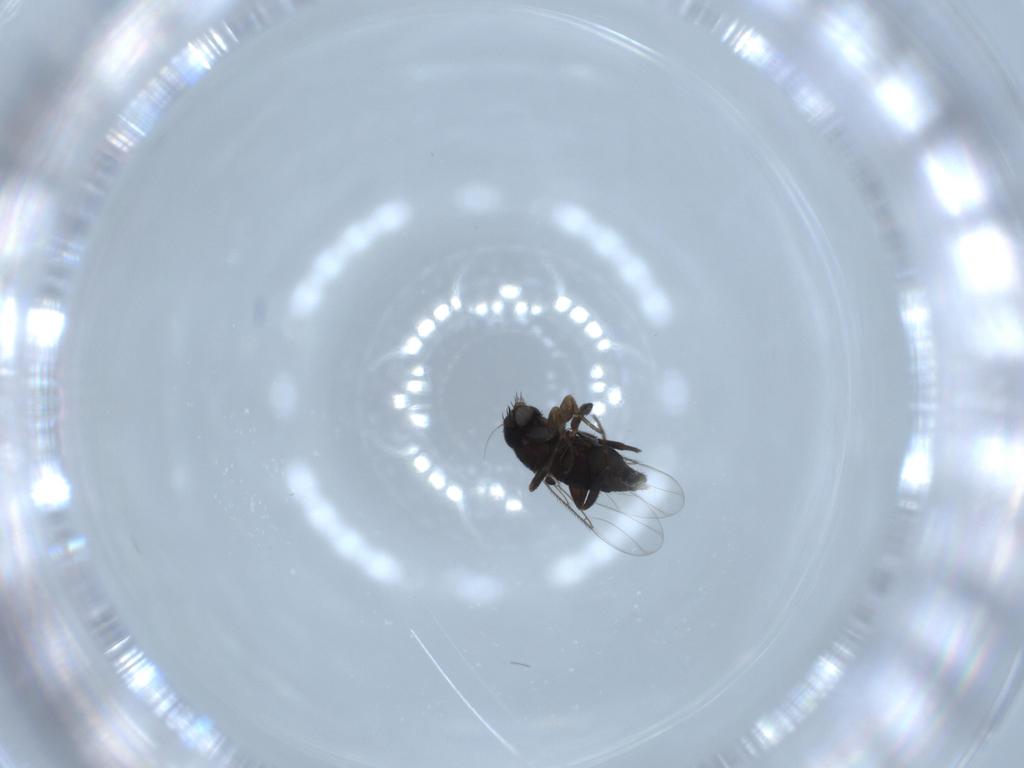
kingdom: Animalia
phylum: Arthropoda
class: Insecta
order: Diptera
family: Phoridae
